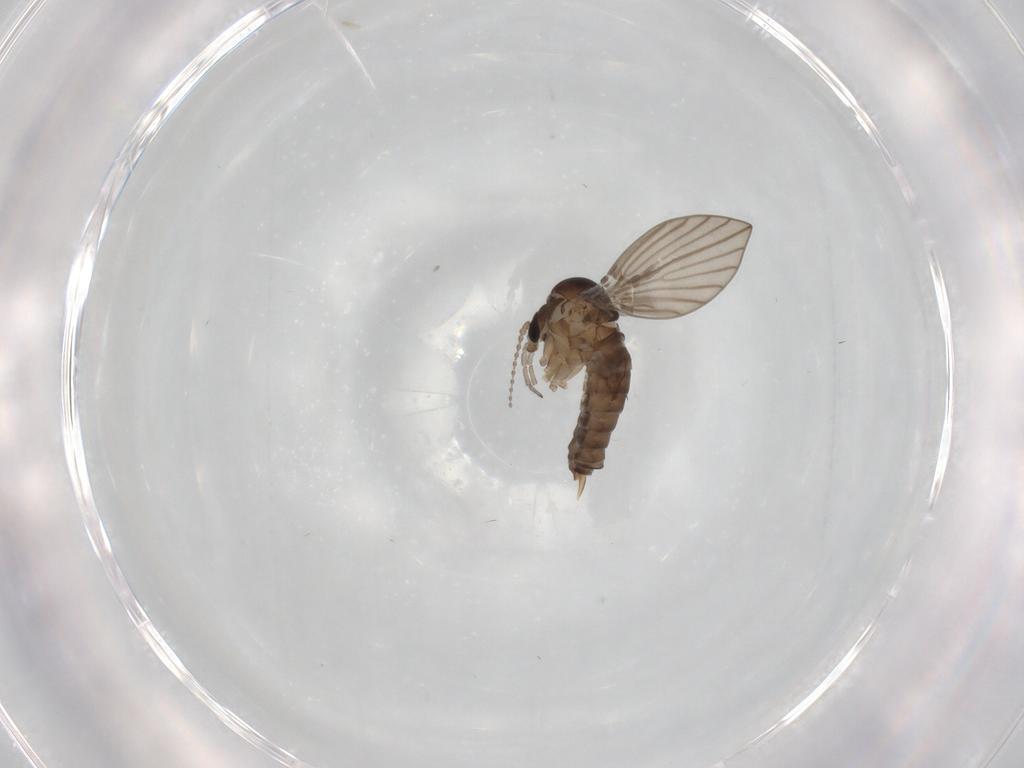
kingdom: Animalia
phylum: Arthropoda
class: Insecta
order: Diptera
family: Psychodidae
